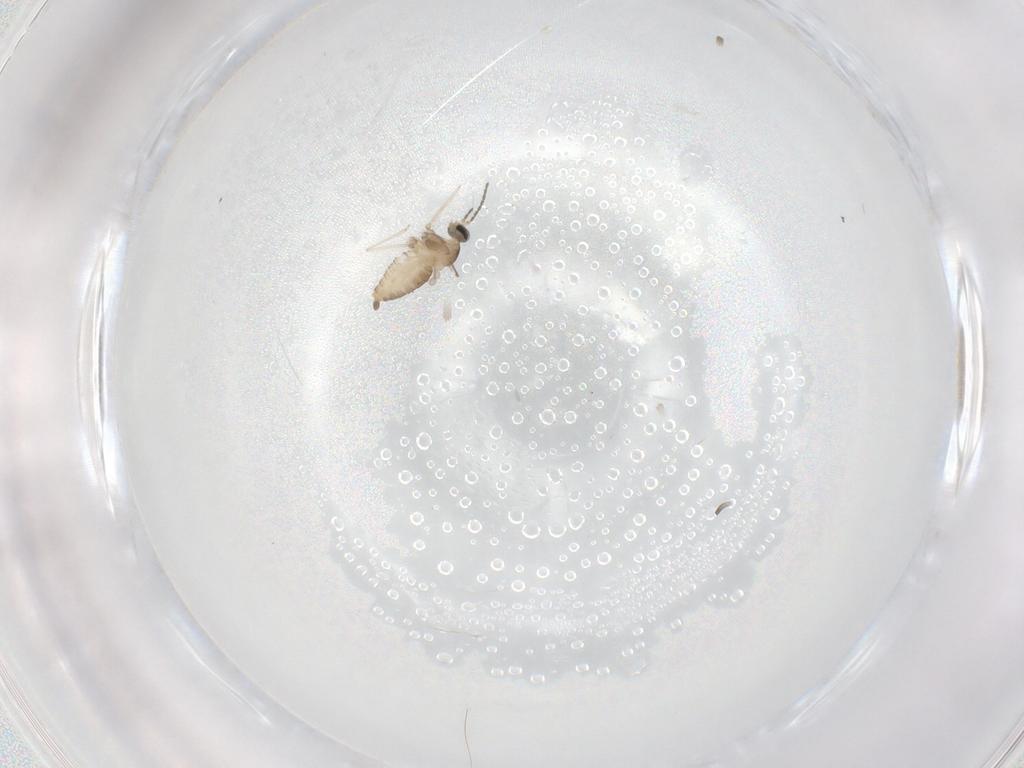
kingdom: Animalia
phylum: Arthropoda
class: Insecta
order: Diptera
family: Cecidomyiidae
